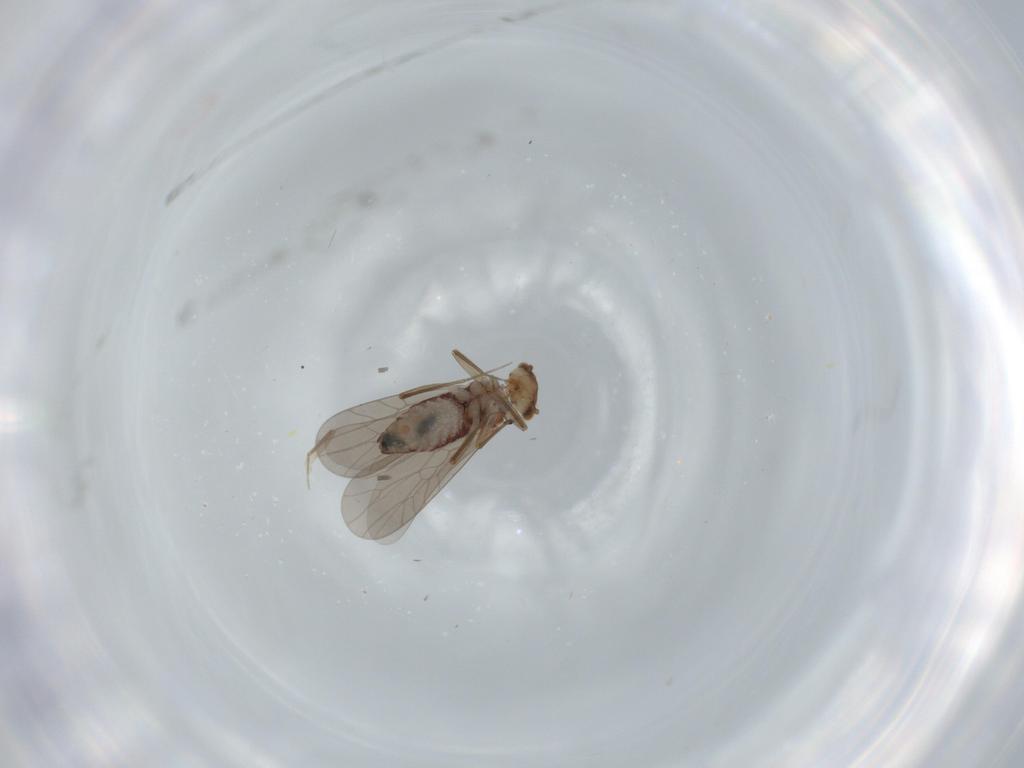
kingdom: Animalia
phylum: Arthropoda
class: Insecta
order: Psocodea
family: Lepidopsocidae
